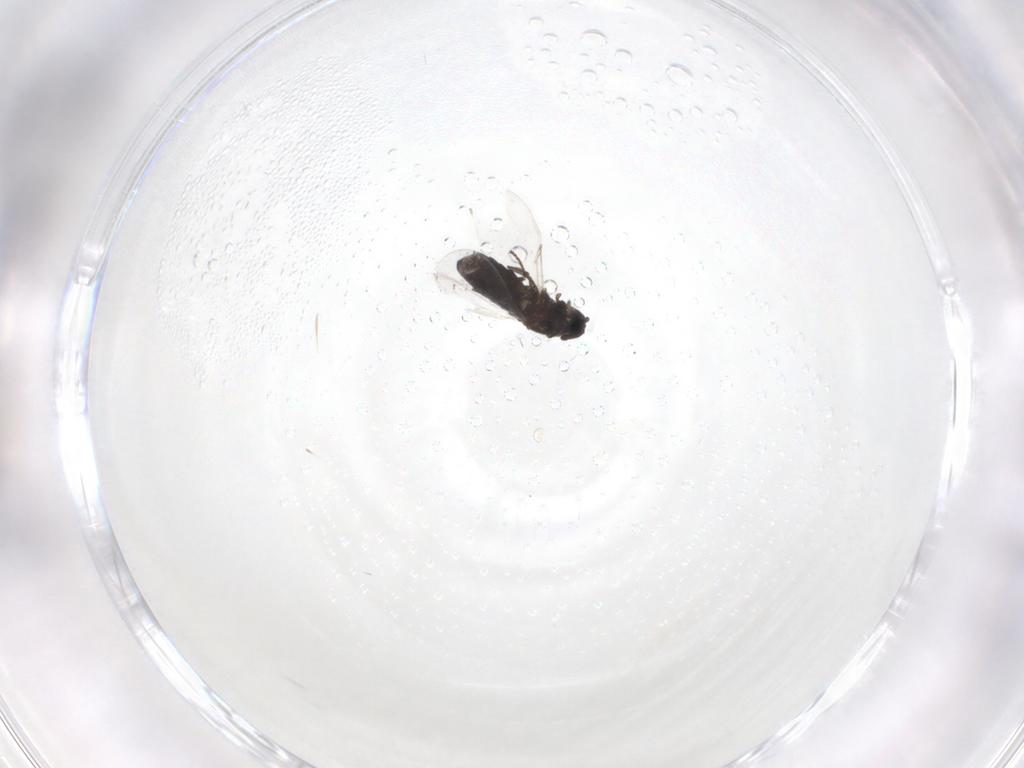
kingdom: Animalia
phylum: Arthropoda
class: Insecta
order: Diptera
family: Scatopsidae
